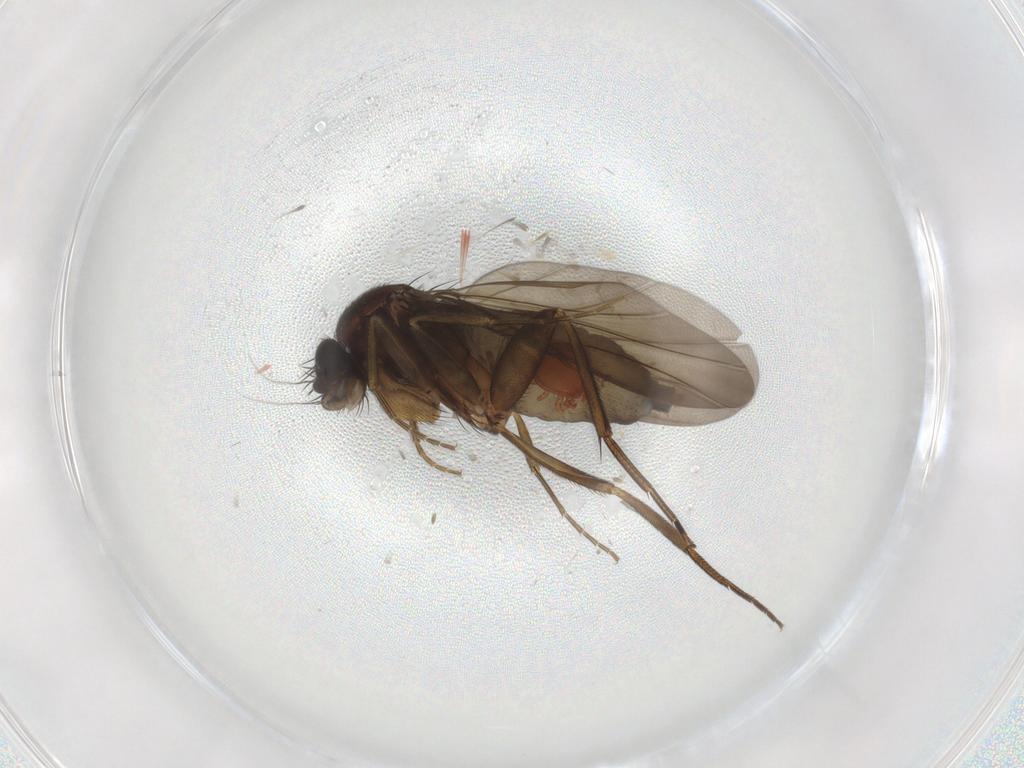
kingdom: Animalia
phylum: Arthropoda
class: Insecta
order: Diptera
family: Phoridae
